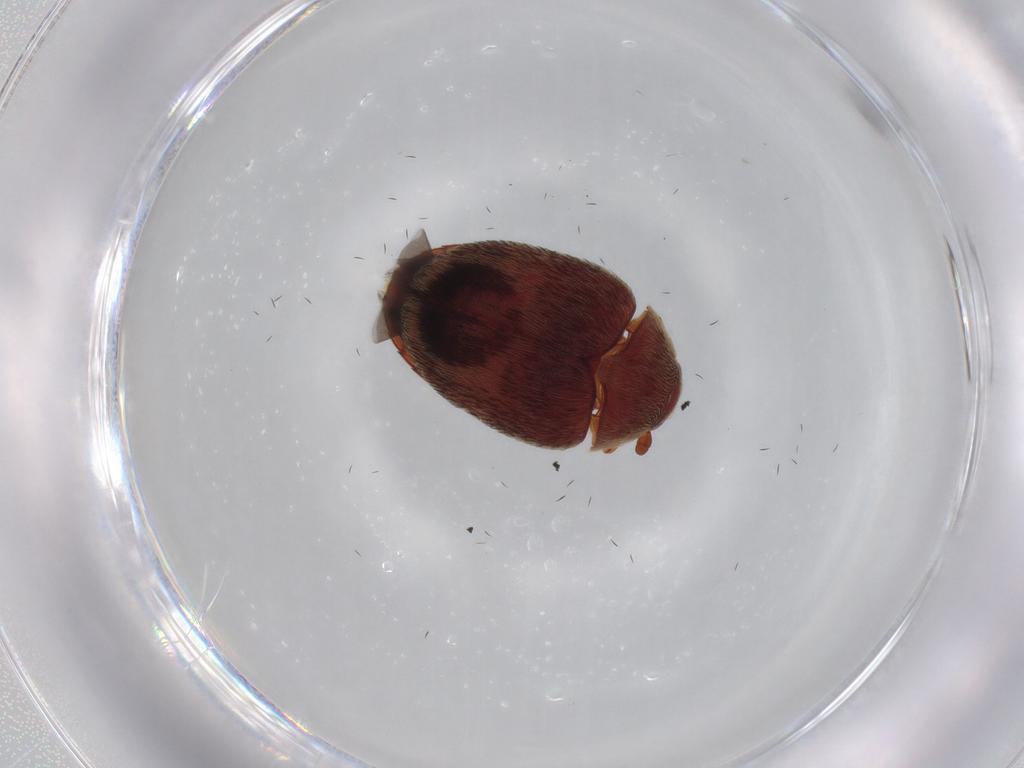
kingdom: Animalia
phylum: Arthropoda
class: Insecta
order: Coleoptera
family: Dermestidae
